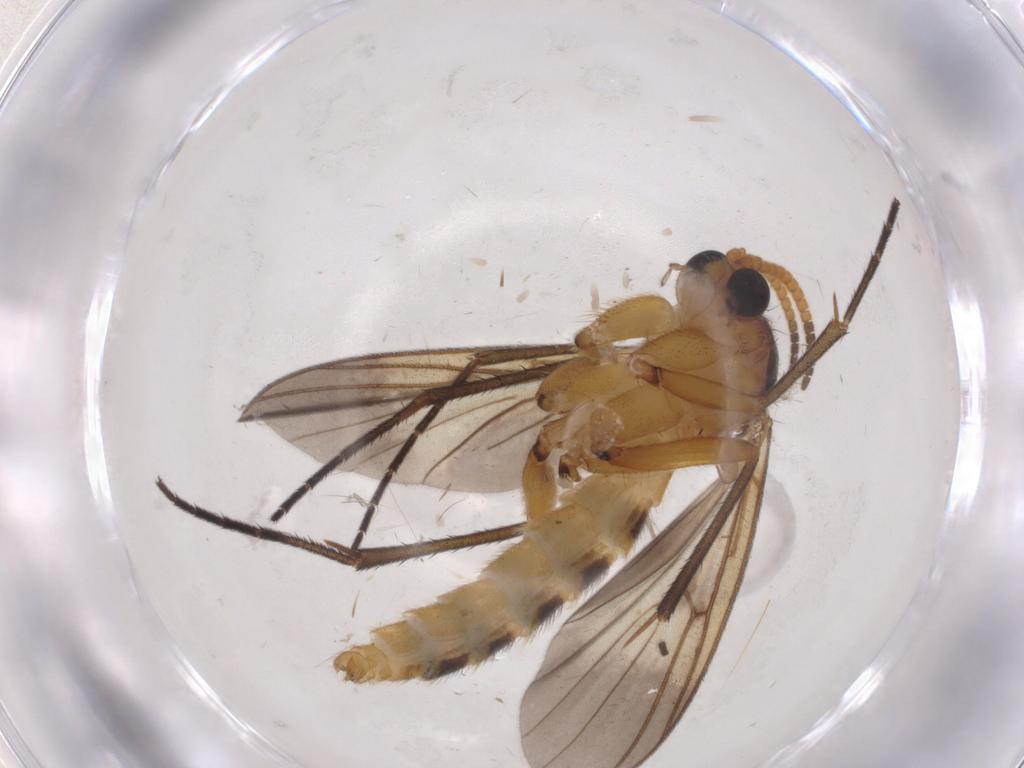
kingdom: Animalia
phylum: Arthropoda
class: Insecta
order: Diptera
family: Mycetophilidae
